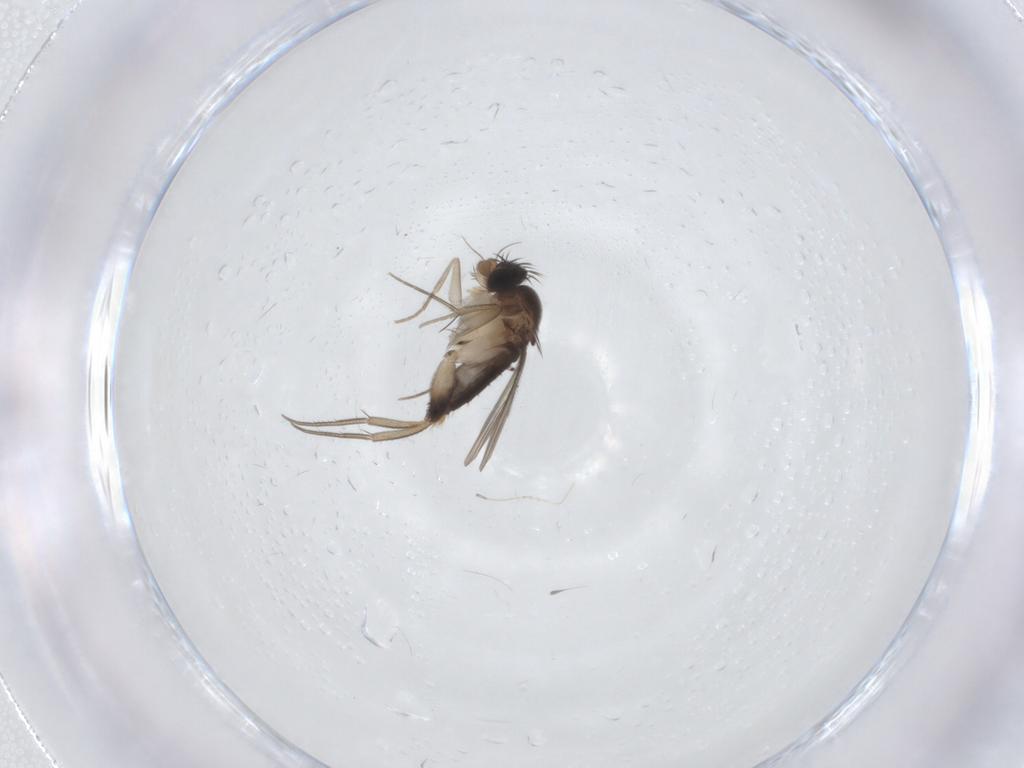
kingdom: Animalia
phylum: Arthropoda
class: Insecta
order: Diptera
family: Phoridae
